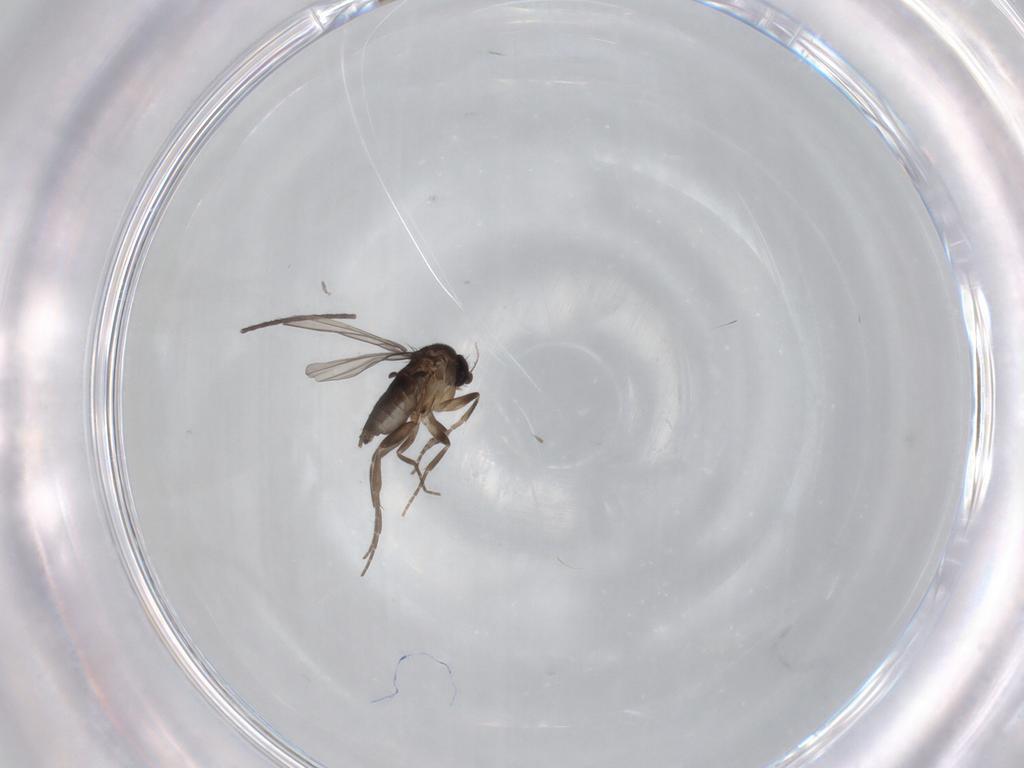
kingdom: Animalia
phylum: Arthropoda
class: Insecta
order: Diptera
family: Phoridae
